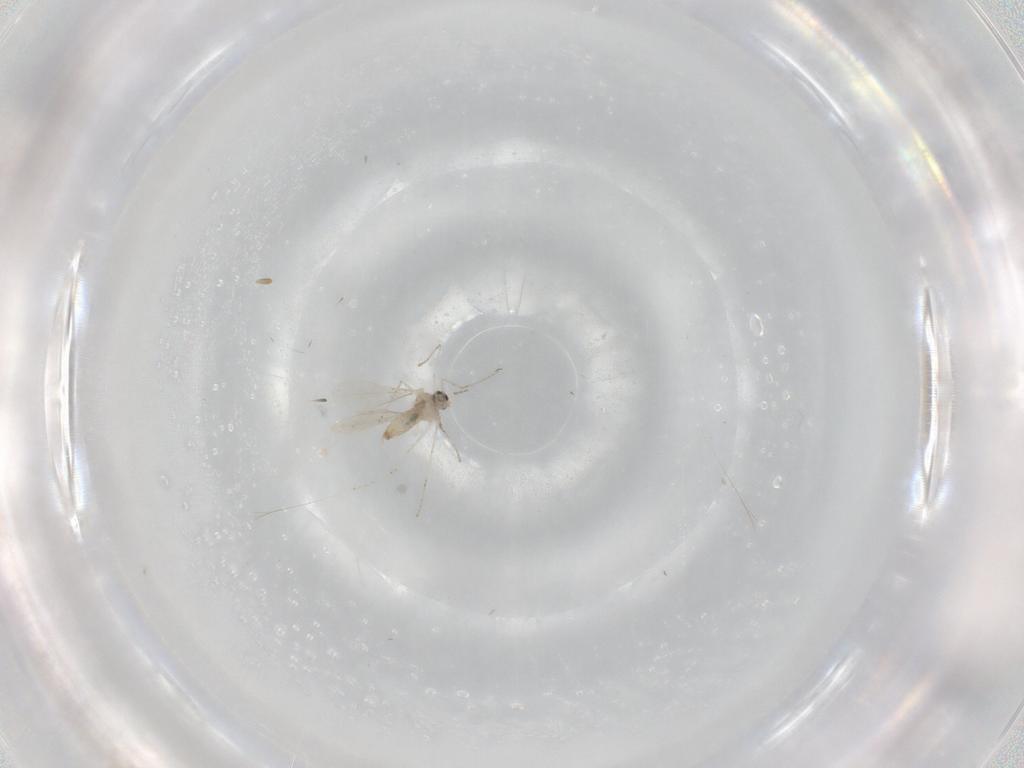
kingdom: Animalia
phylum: Arthropoda
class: Insecta
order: Diptera
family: Cecidomyiidae
